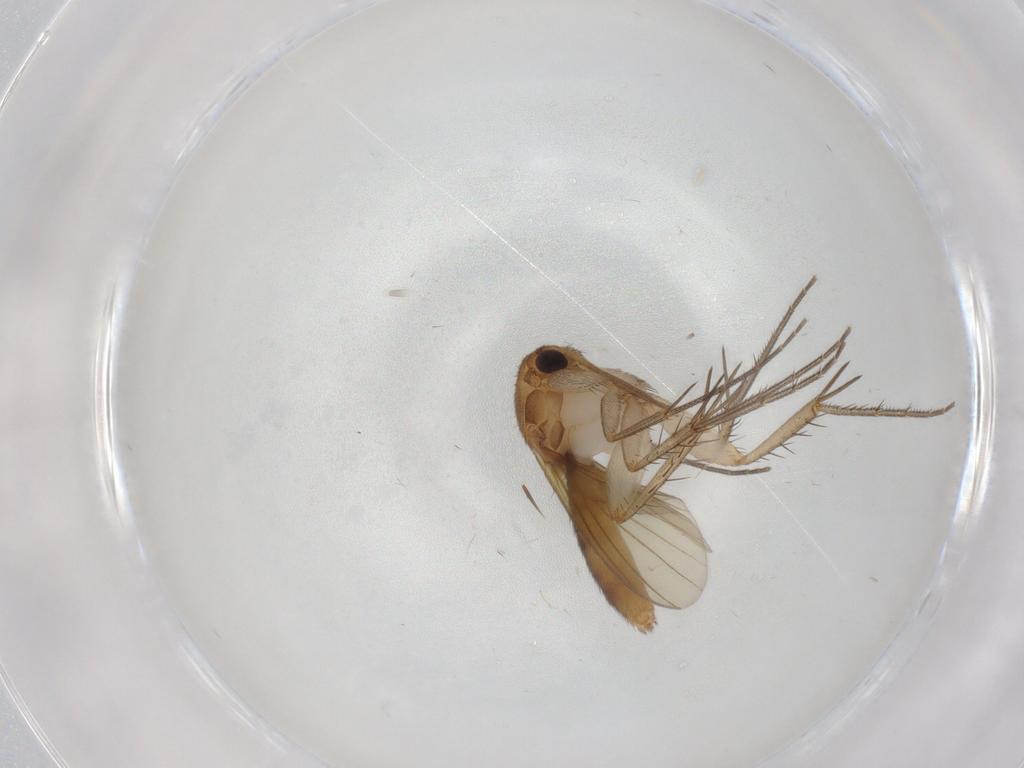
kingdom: Animalia
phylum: Arthropoda
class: Insecta
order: Diptera
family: Mycetophilidae
